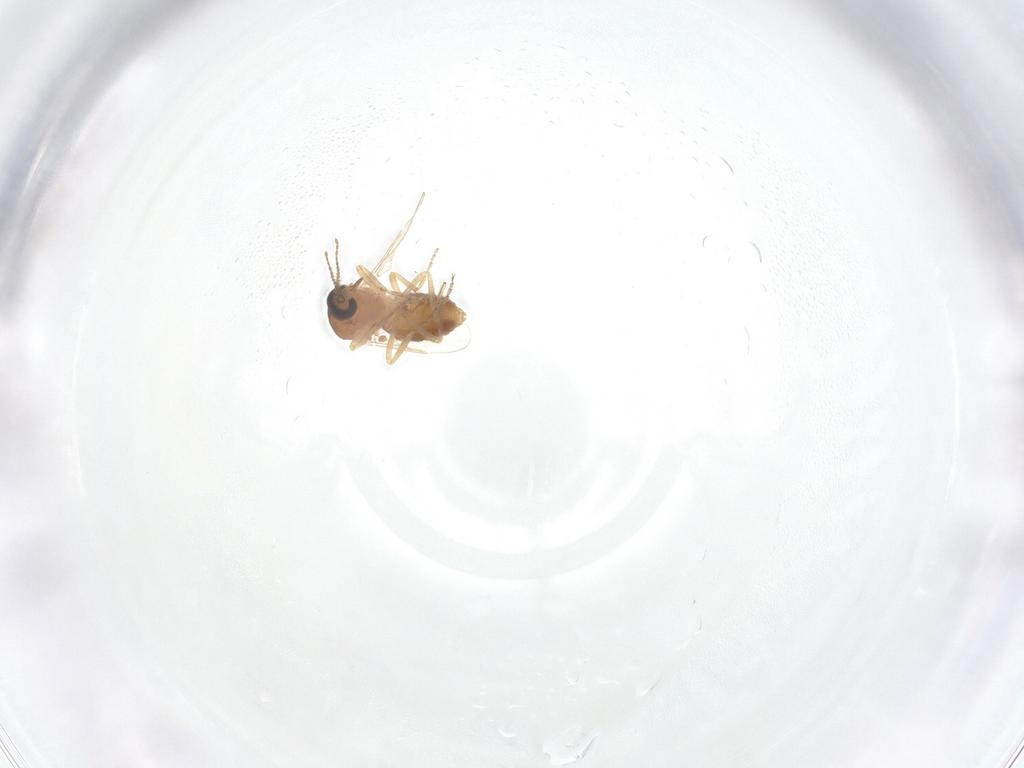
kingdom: Animalia
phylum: Arthropoda
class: Insecta
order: Diptera
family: Ceratopogonidae
